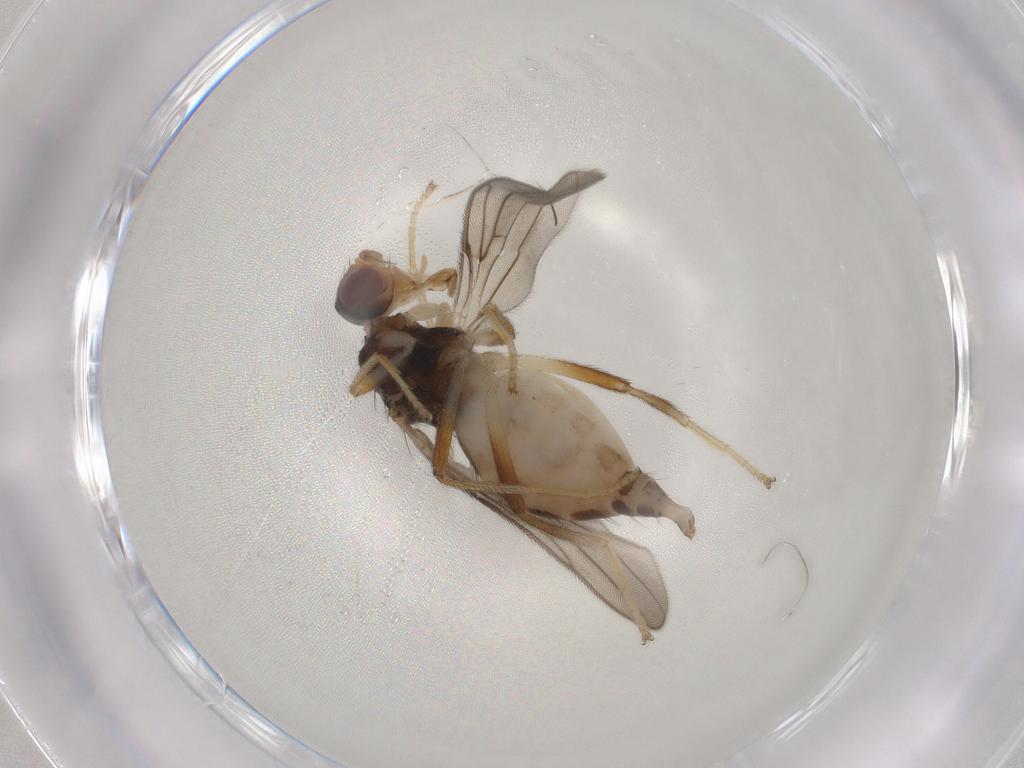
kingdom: Animalia
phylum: Arthropoda
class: Insecta
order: Diptera
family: Chloropidae
